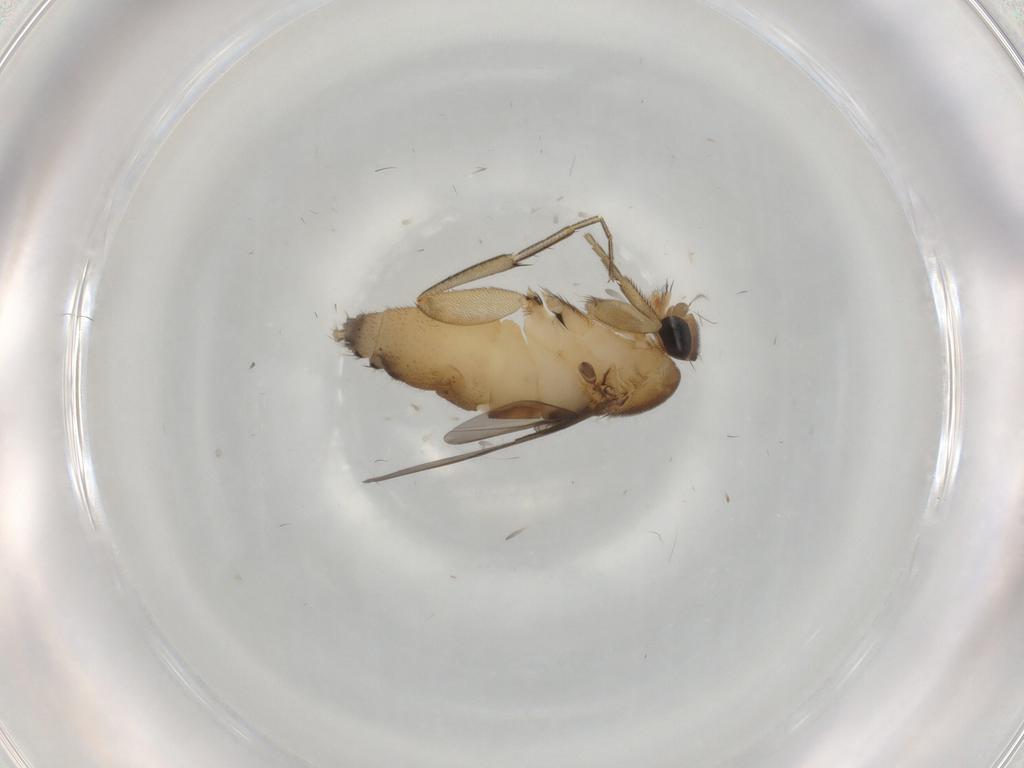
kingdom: Animalia
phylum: Arthropoda
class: Insecta
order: Diptera
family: Phoridae
